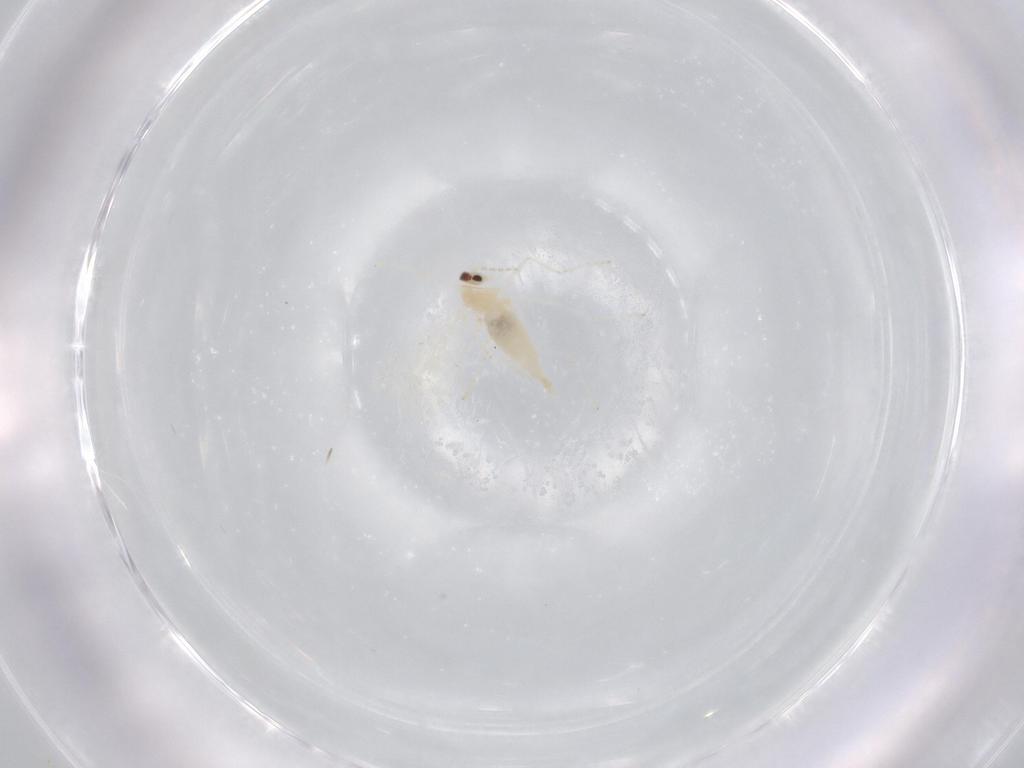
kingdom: Animalia
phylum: Arthropoda
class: Insecta
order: Diptera
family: Cecidomyiidae
